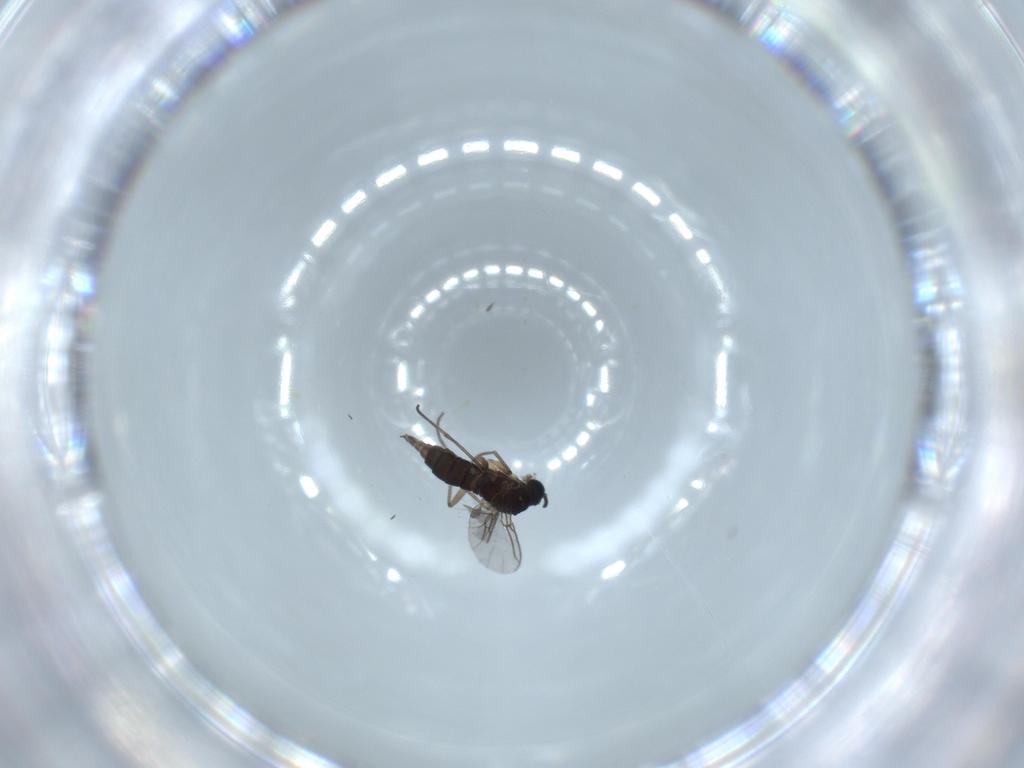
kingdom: Animalia
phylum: Arthropoda
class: Insecta
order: Diptera
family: Sciaridae
